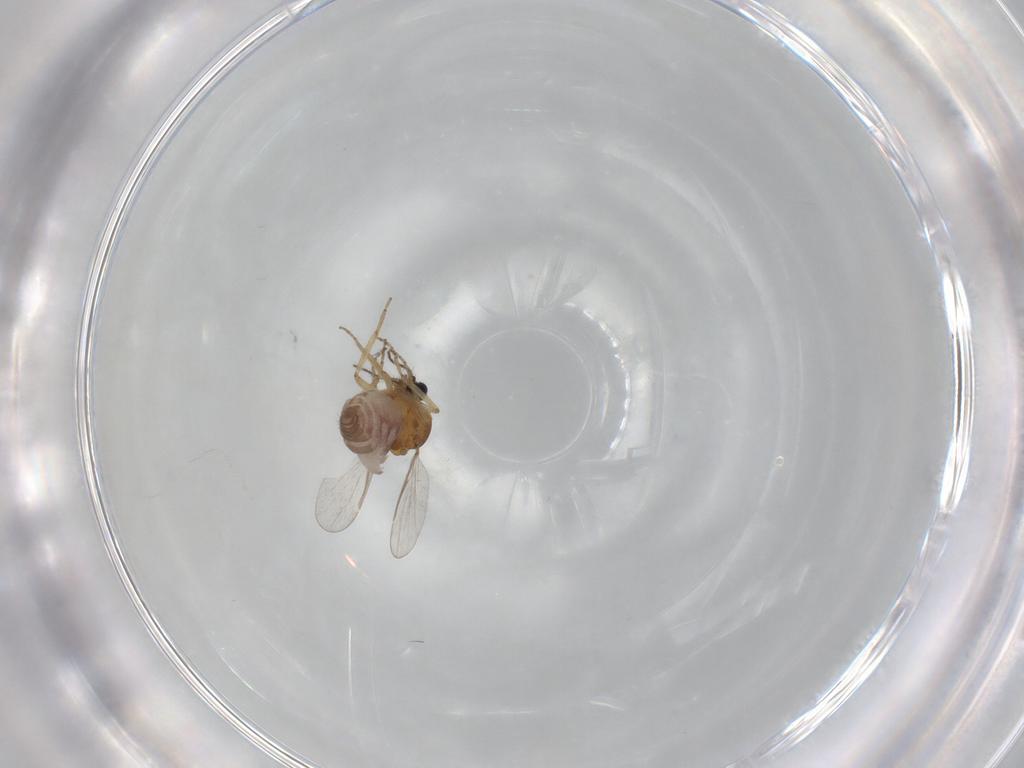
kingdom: Animalia
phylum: Arthropoda
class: Insecta
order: Diptera
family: Ceratopogonidae
